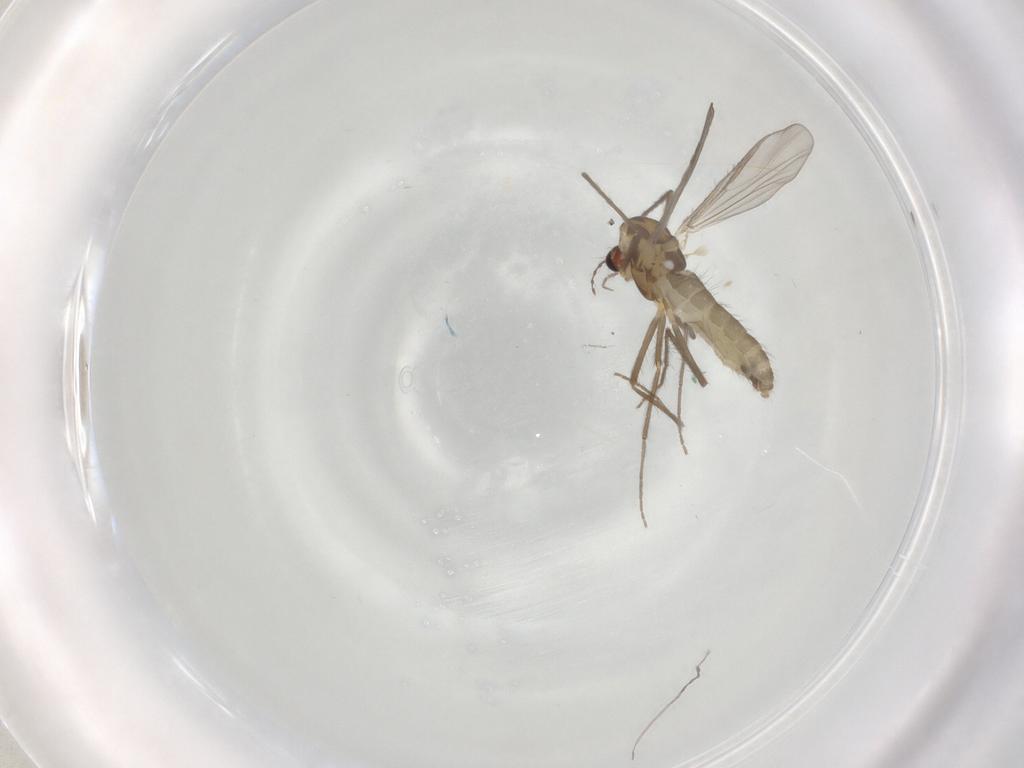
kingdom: Animalia
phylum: Arthropoda
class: Insecta
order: Diptera
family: Chironomidae
